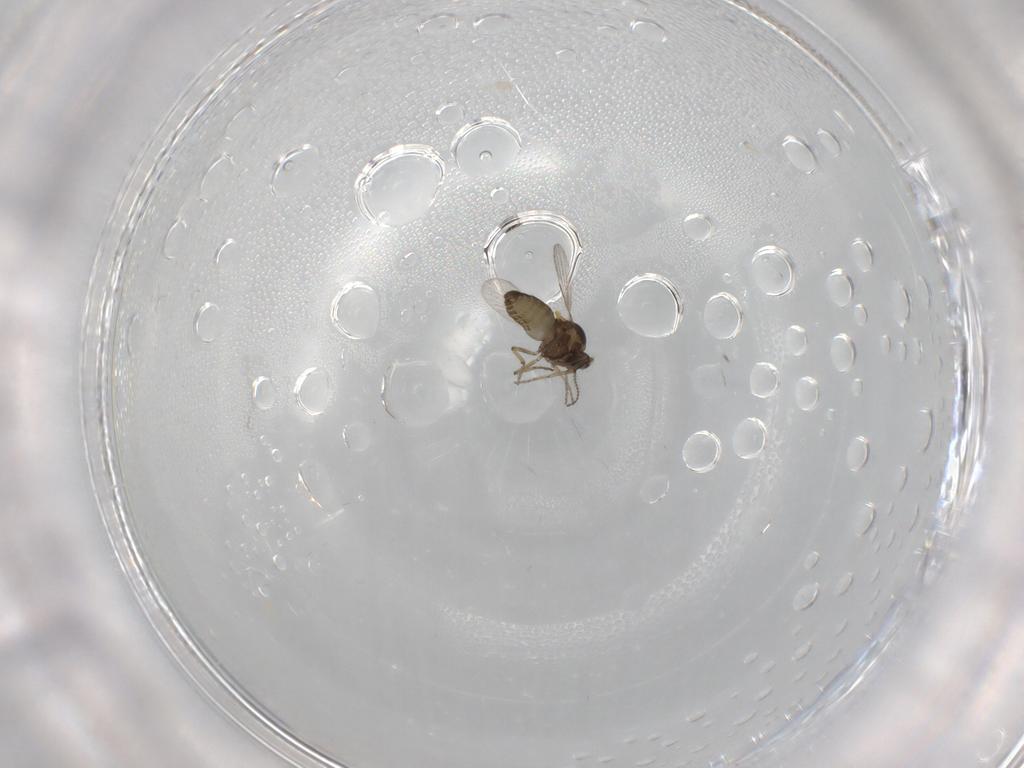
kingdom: Animalia
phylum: Arthropoda
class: Insecta
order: Diptera
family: Ceratopogonidae
